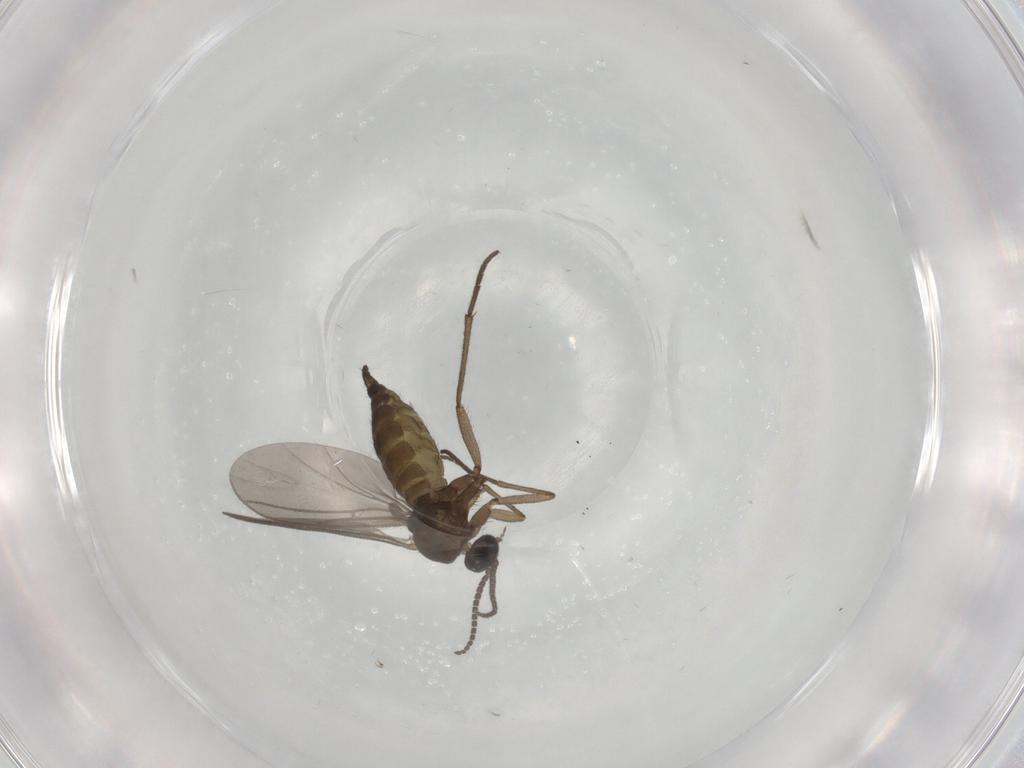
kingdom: Animalia
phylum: Arthropoda
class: Insecta
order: Diptera
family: Sciaridae
